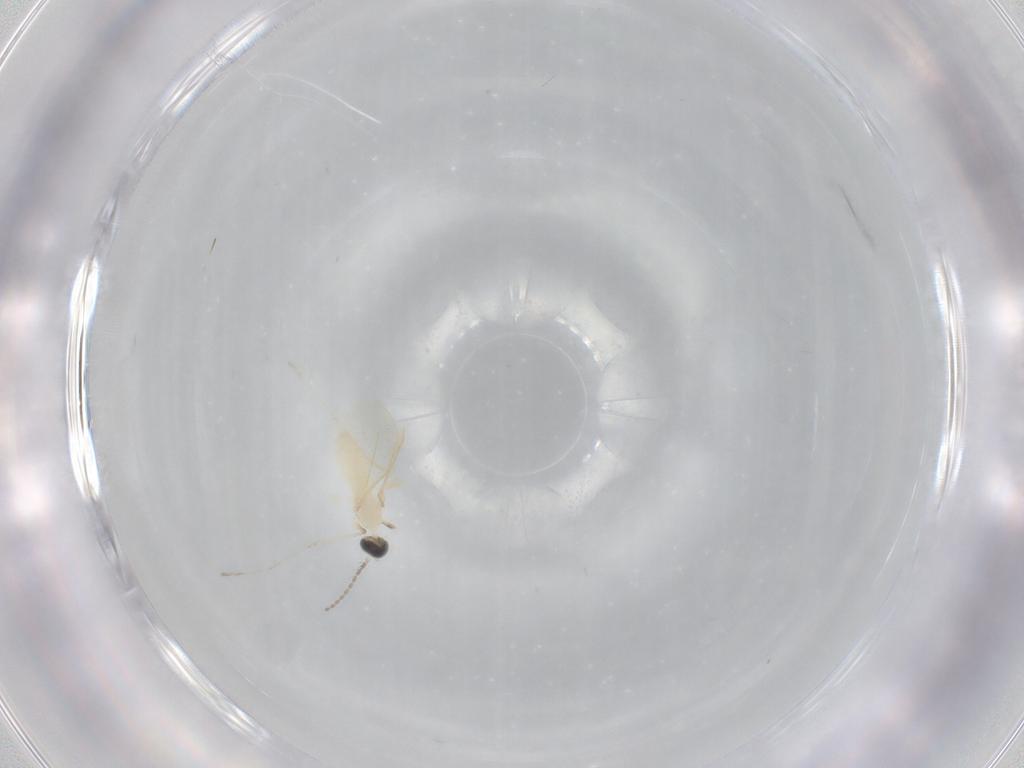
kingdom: Animalia
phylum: Arthropoda
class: Insecta
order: Diptera
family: Cecidomyiidae
